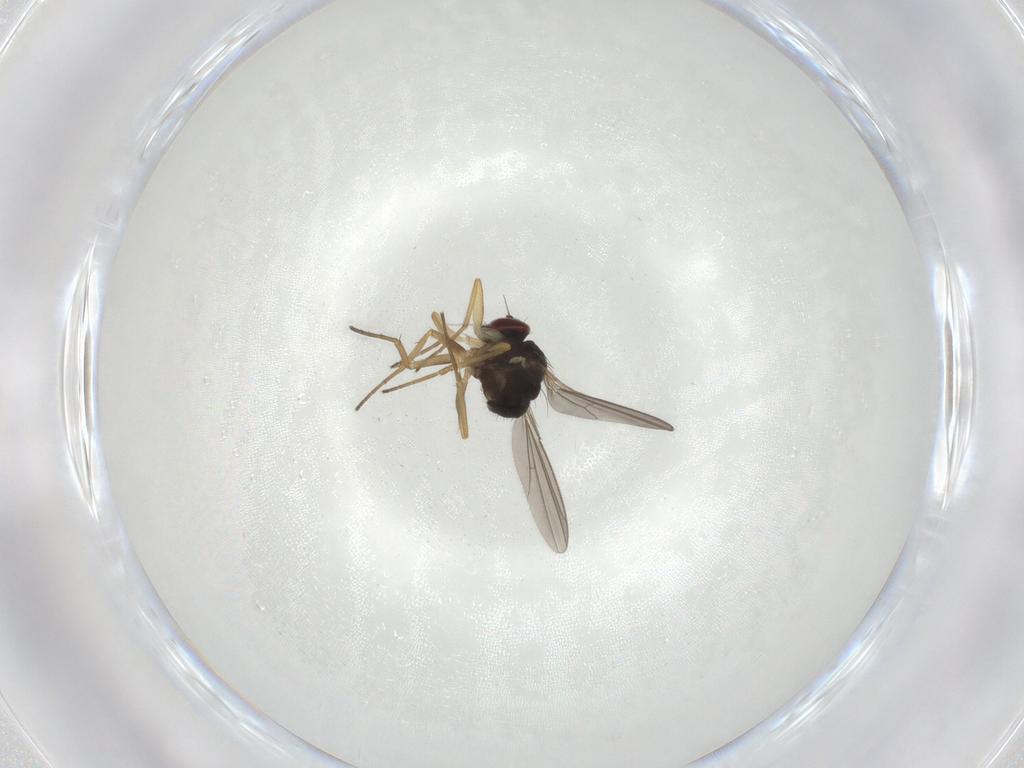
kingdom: Animalia
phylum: Arthropoda
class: Insecta
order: Diptera
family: Dolichopodidae
